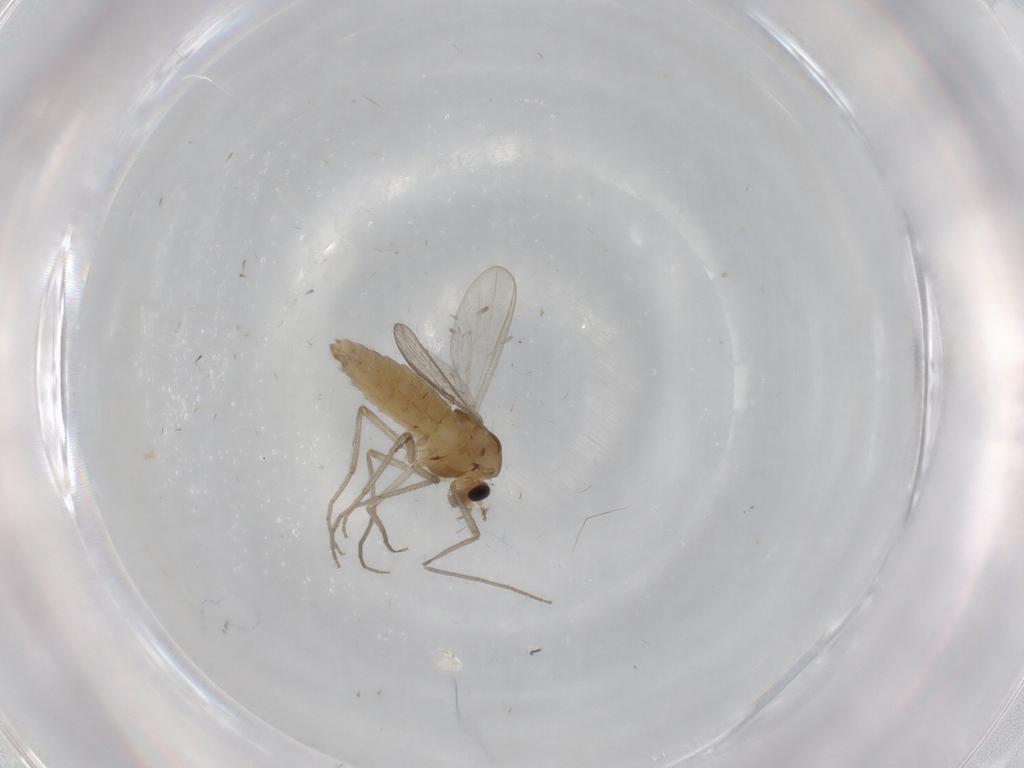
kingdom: Animalia
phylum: Arthropoda
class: Insecta
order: Diptera
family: Chironomidae
